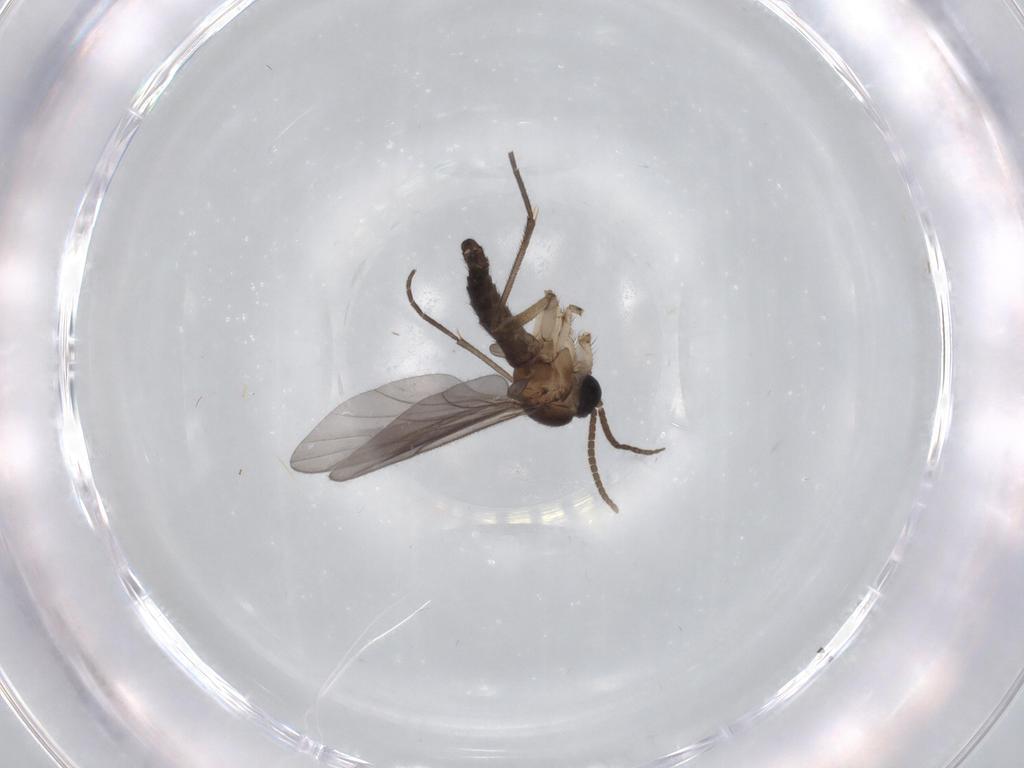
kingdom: Animalia
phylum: Arthropoda
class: Insecta
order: Diptera
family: Sciaridae
